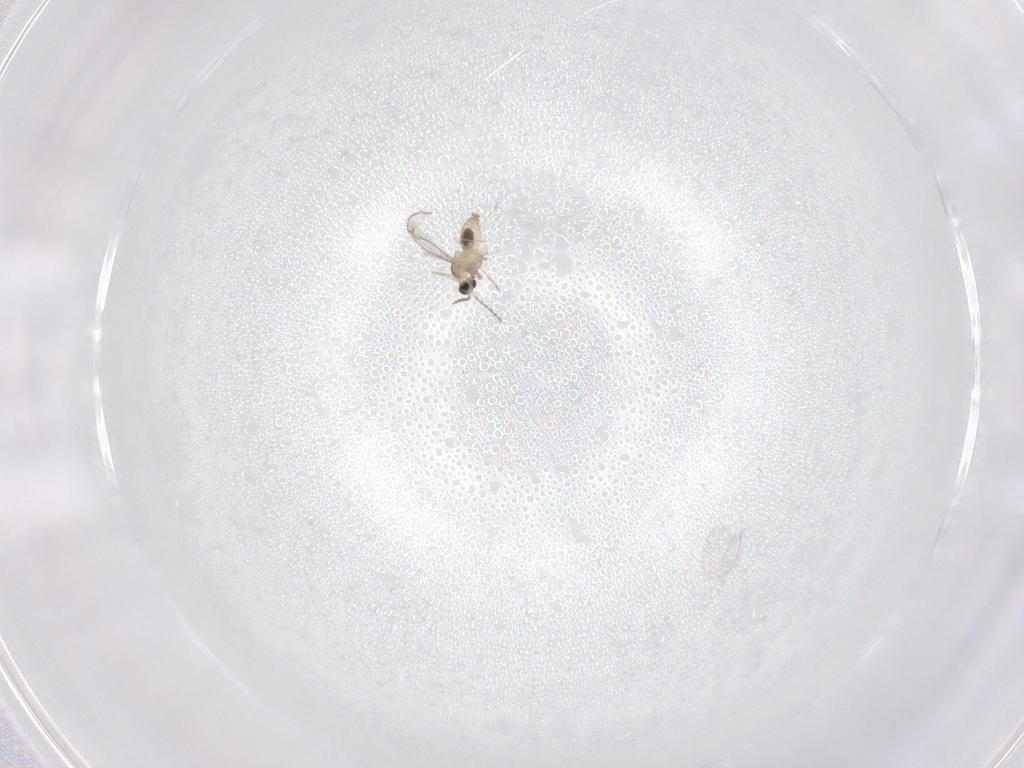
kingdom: Animalia
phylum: Arthropoda
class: Insecta
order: Diptera
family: Cecidomyiidae
